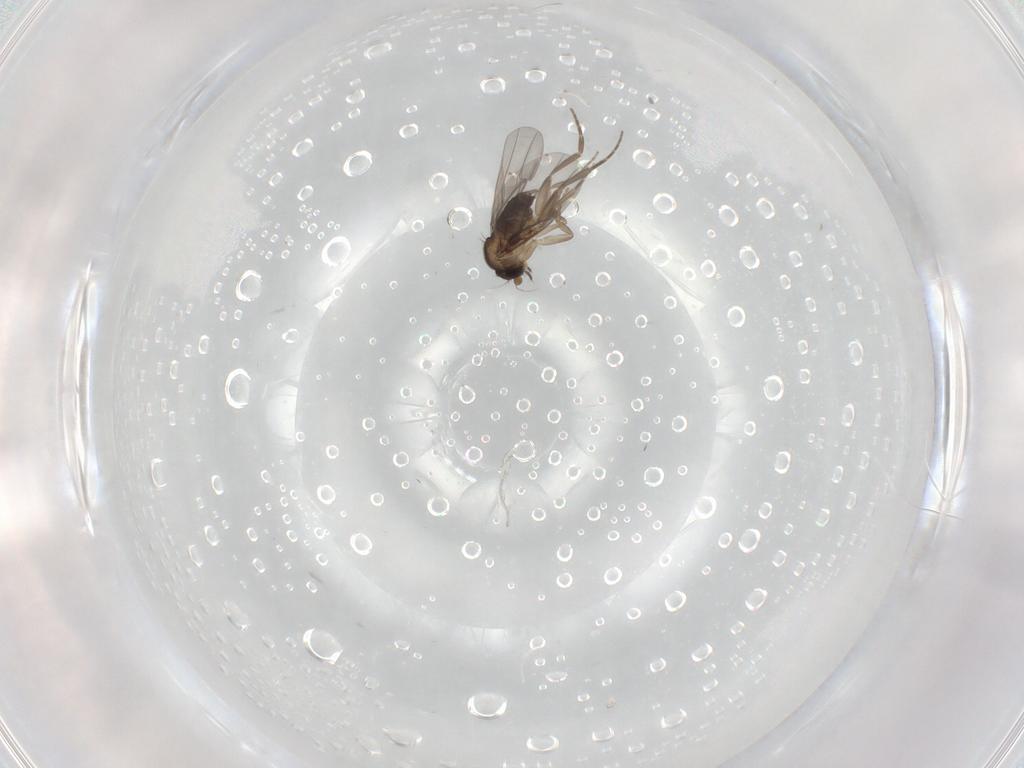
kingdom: Animalia
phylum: Arthropoda
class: Insecta
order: Diptera
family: Sciaridae
